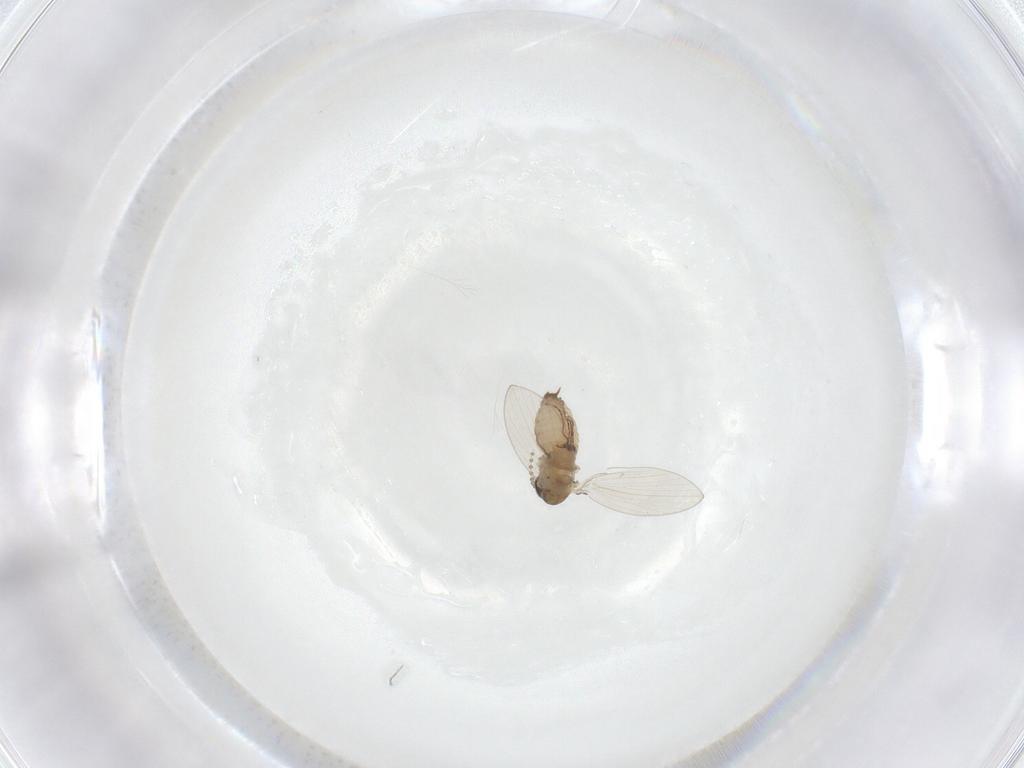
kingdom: Animalia
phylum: Arthropoda
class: Insecta
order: Diptera
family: Psychodidae
